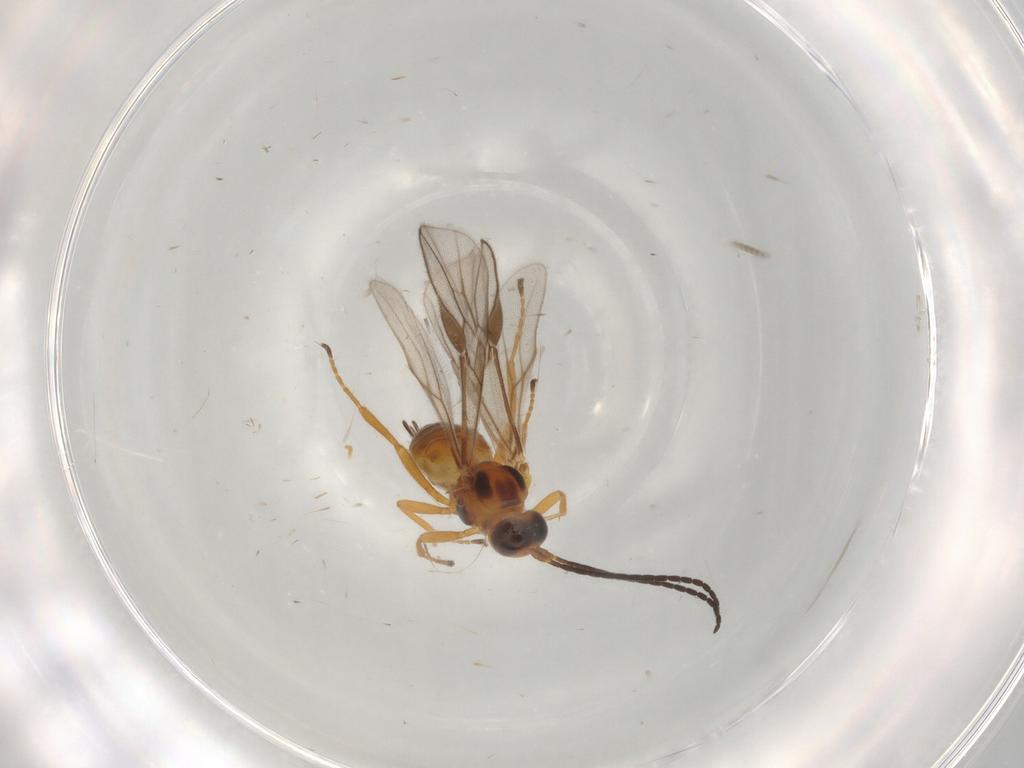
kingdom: Animalia
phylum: Arthropoda
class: Insecta
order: Hymenoptera
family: Braconidae
